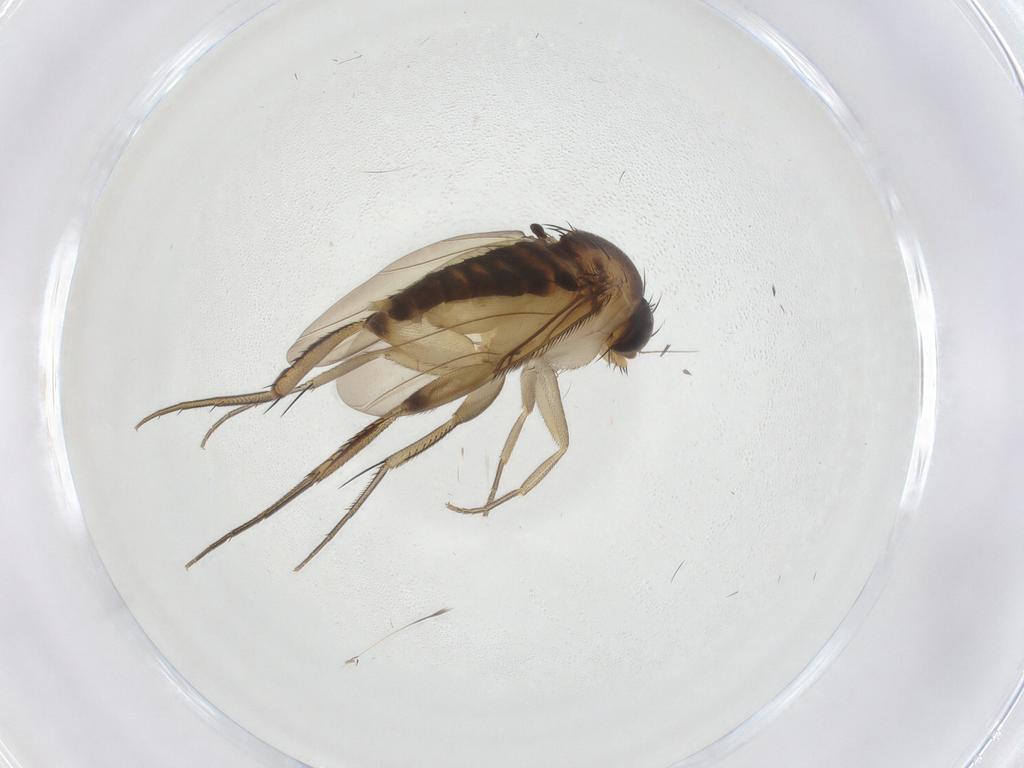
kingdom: Animalia
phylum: Arthropoda
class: Insecta
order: Diptera
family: Phoridae
